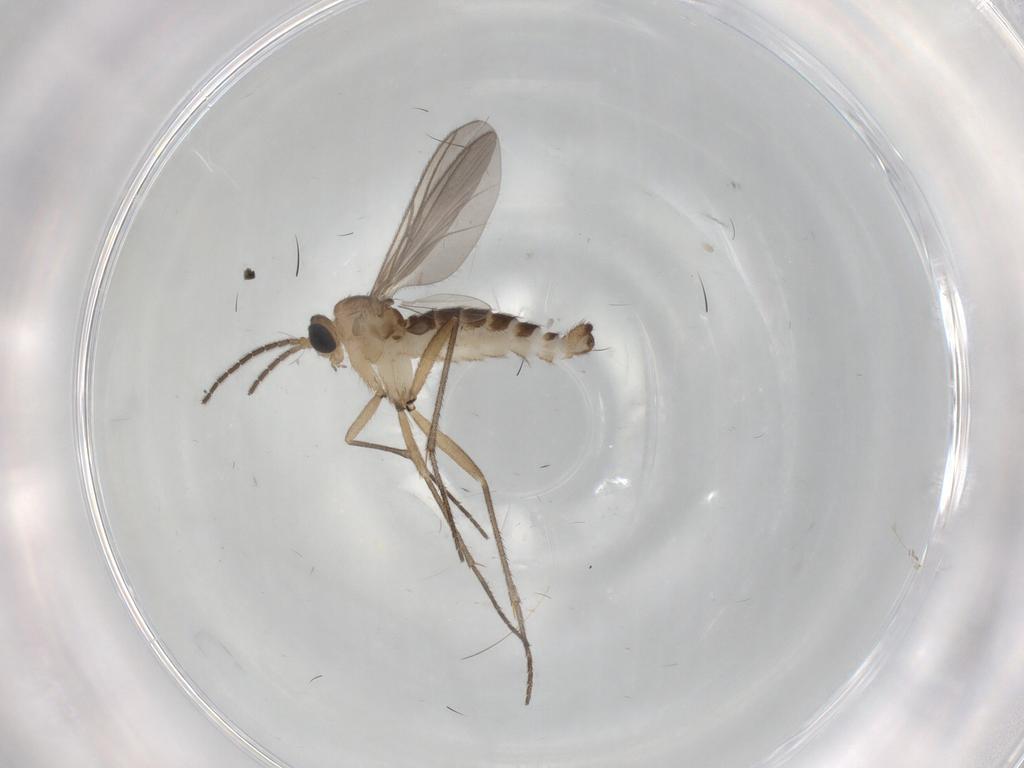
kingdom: Animalia
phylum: Arthropoda
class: Insecta
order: Diptera
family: Sciaridae
